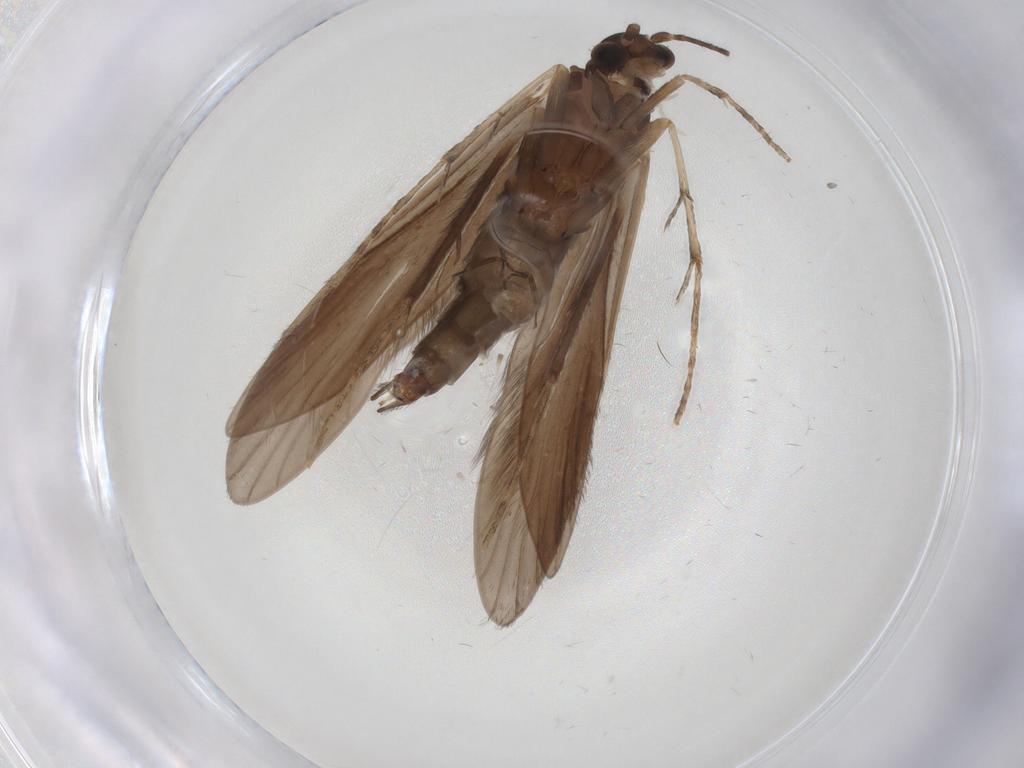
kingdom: Animalia
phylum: Arthropoda
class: Insecta
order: Trichoptera
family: Xiphocentronidae
